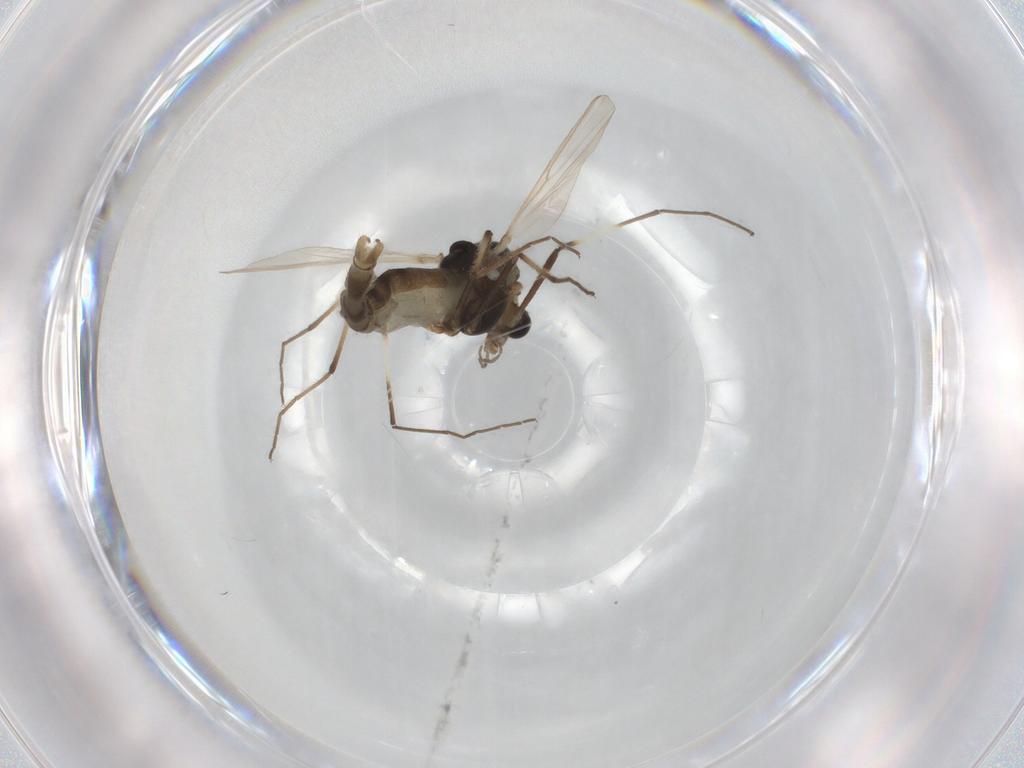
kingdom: Animalia
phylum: Arthropoda
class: Insecta
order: Diptera
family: Chironomidae
